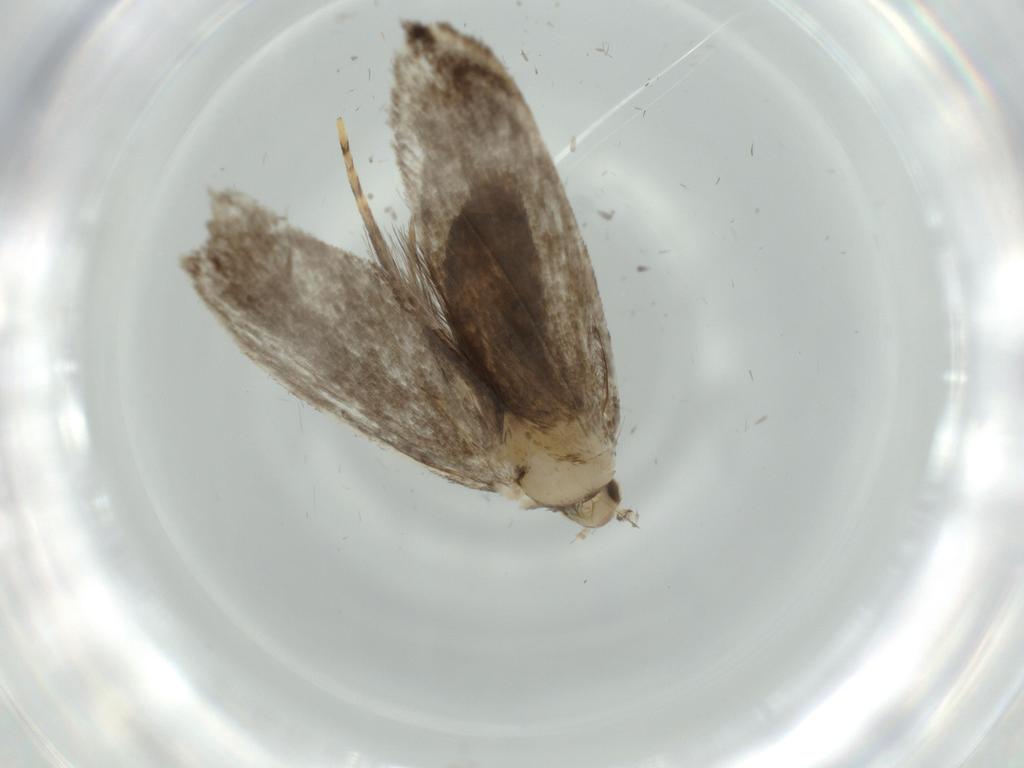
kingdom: Animalia
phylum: Arthropoda
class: Insecta
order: Lepidoptera
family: Dryadaulidae
